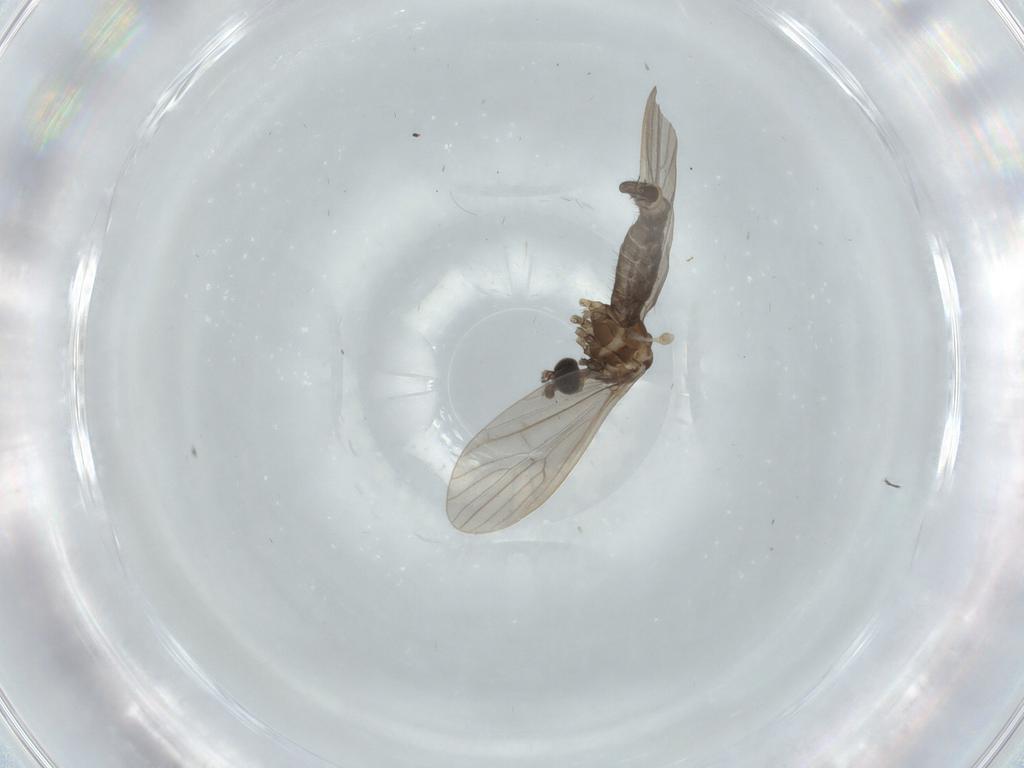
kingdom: Animalia
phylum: Arthropoda
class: Insecta
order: Diptera
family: Limoniidae
